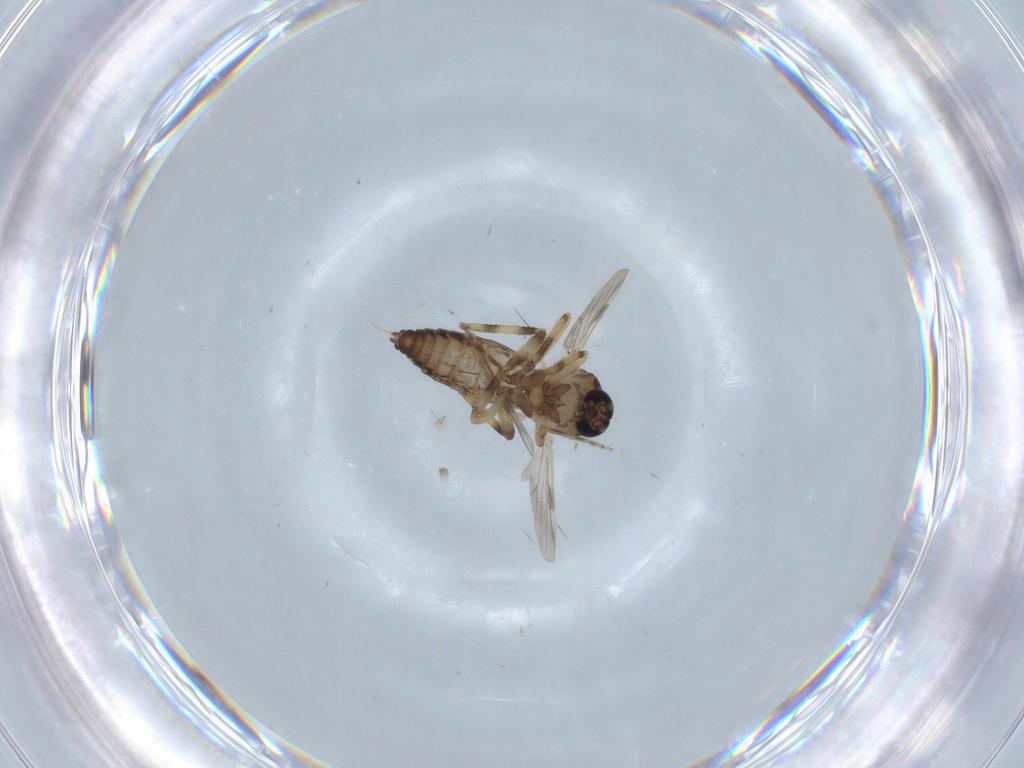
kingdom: Animalia
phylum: Arthropoda
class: Insecta
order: Diptera
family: Ceratopogonidae
